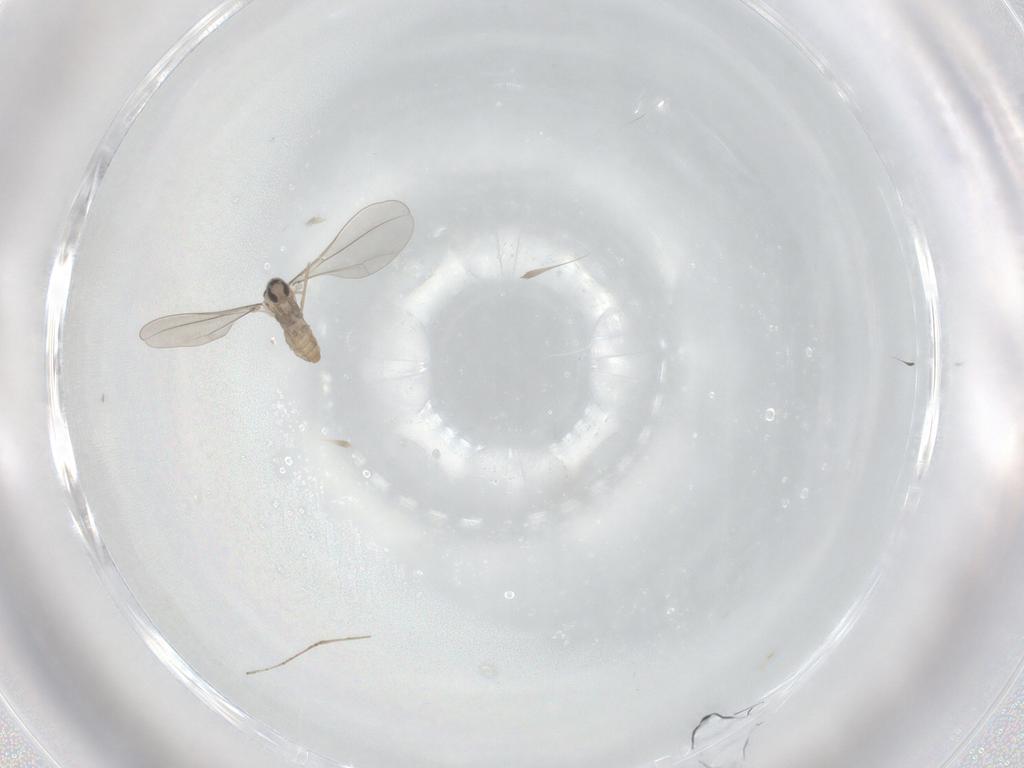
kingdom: Animalia
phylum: Arthropoda
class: Insecta
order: Diptera
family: Cecidomyiidae
